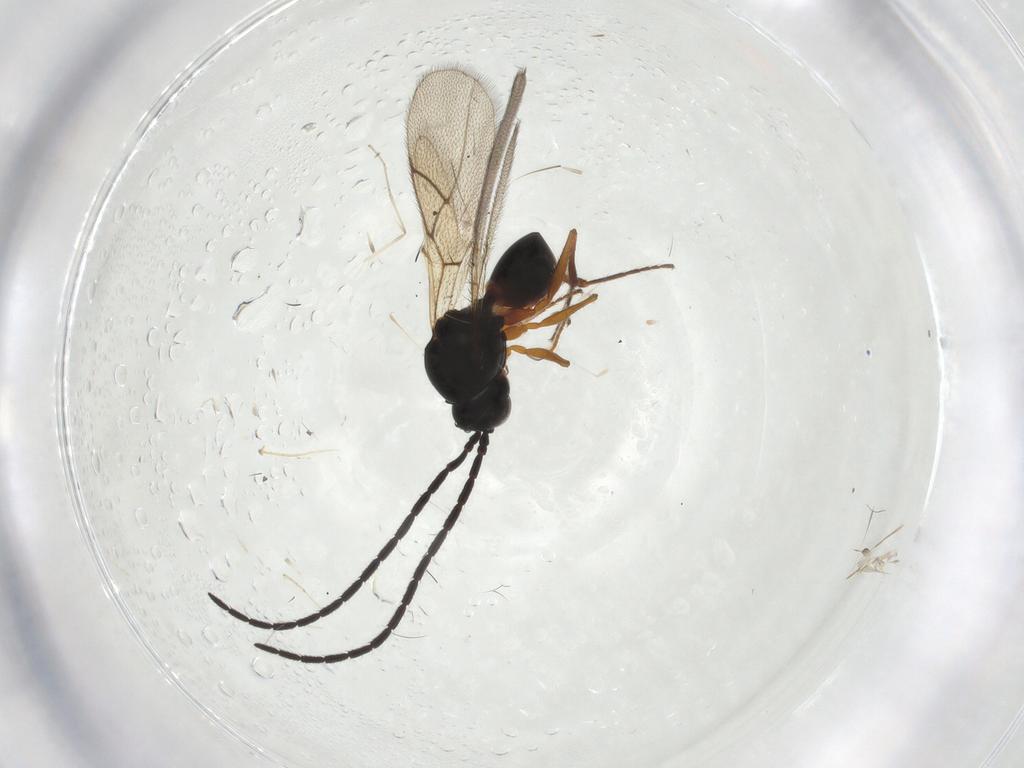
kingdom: Animalia
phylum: Arthropoda
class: Insecta
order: Hymenoptera
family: Figitidae
